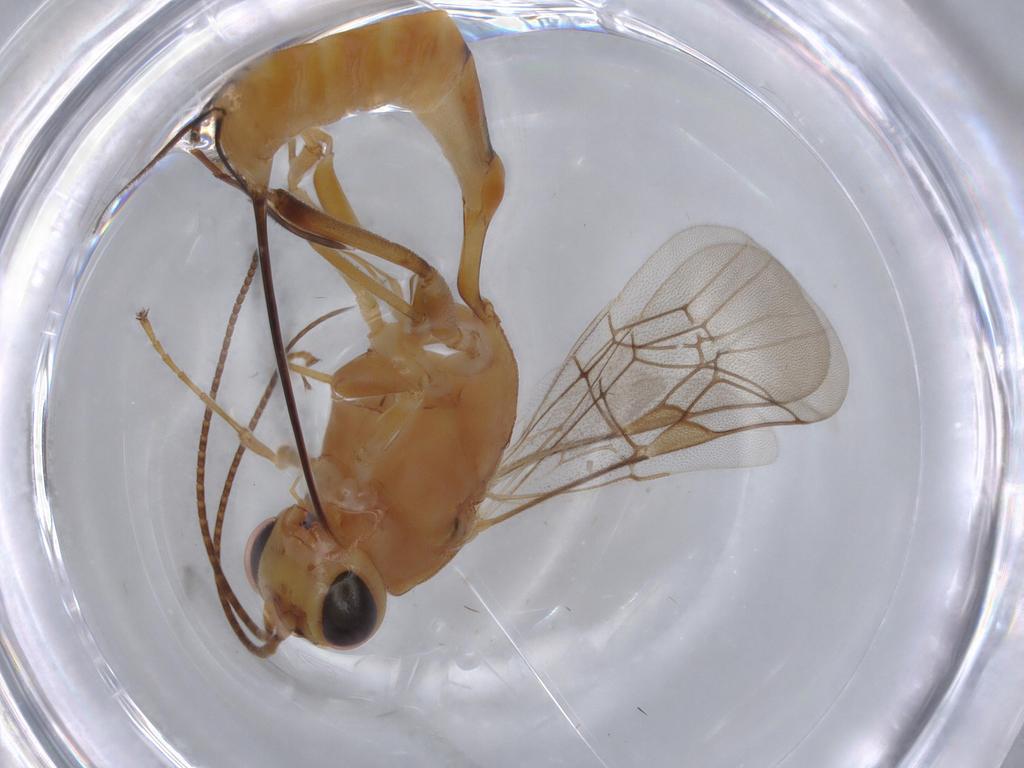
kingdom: Animalia
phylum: Arthropoda
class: Insecta
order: Hymenoptera
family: Ichneumonidae
